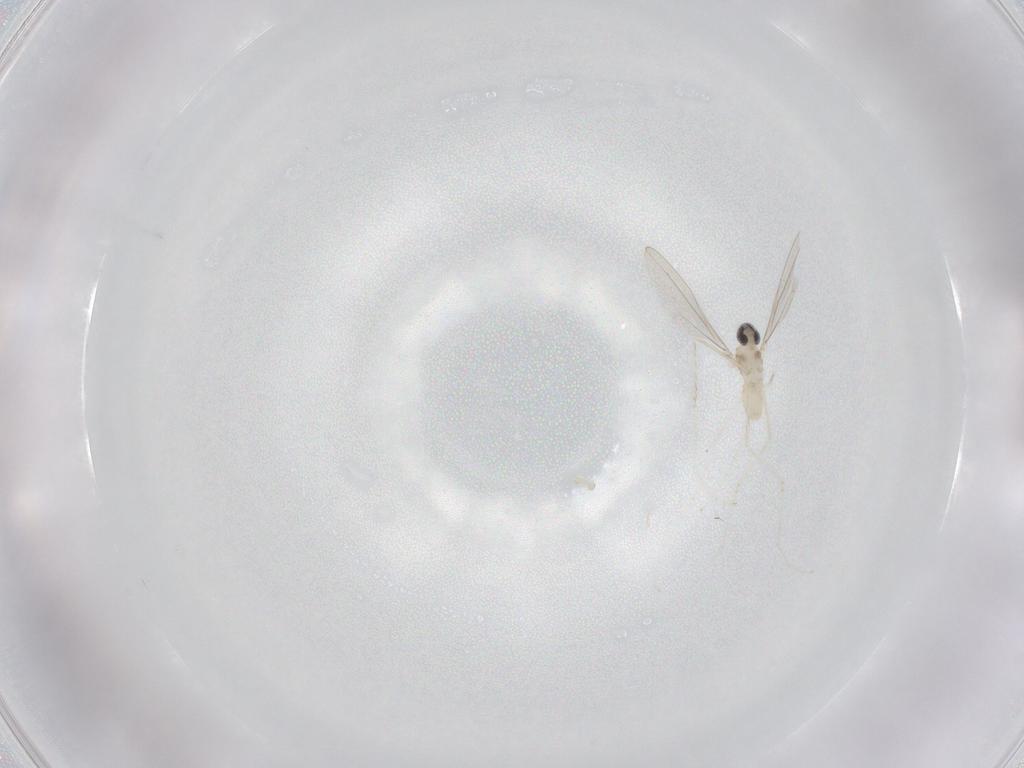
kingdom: Animalia
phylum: Arthropoda
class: Insecta
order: Diptera
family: Cecidomyiidae
